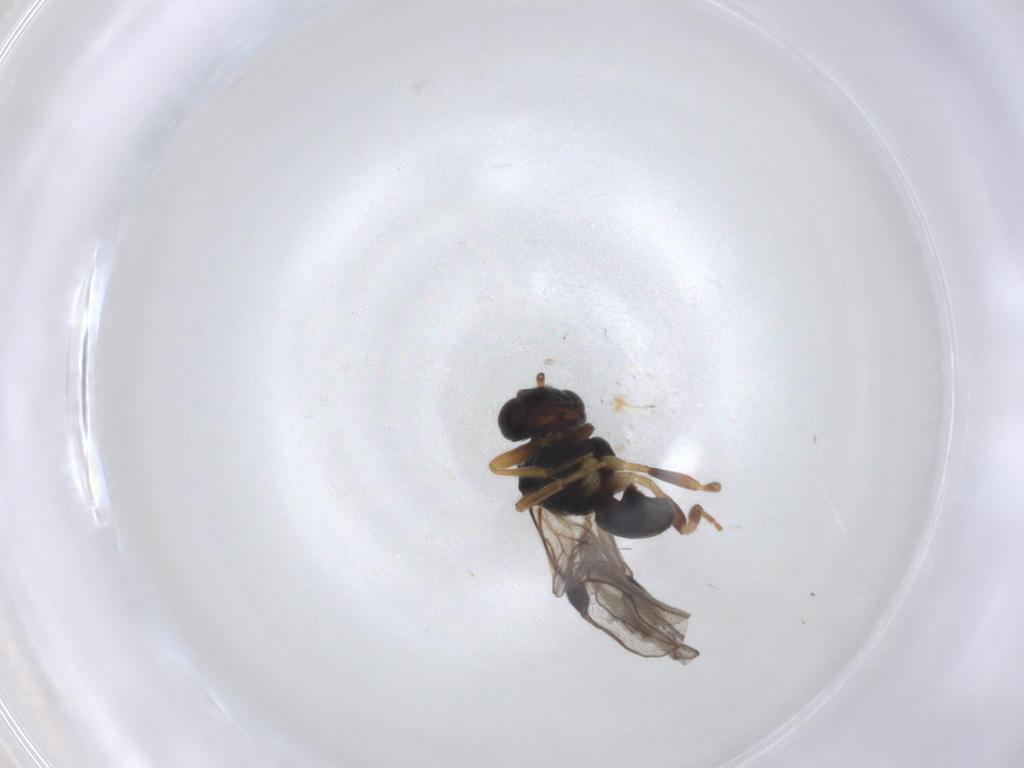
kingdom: Animalia
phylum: Arthropoda
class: Insecta
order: Hymenoptera
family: Braconidae
